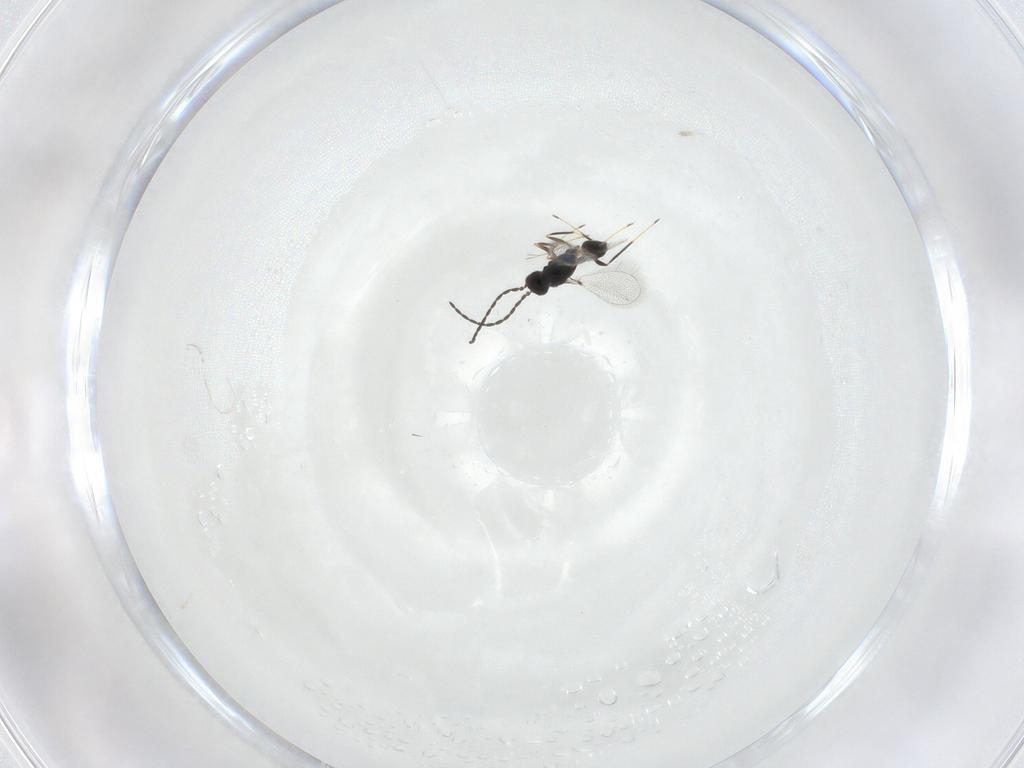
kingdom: Animalia
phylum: Arthropoda
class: Insecta
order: Hymenoptera
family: Mymaridae
